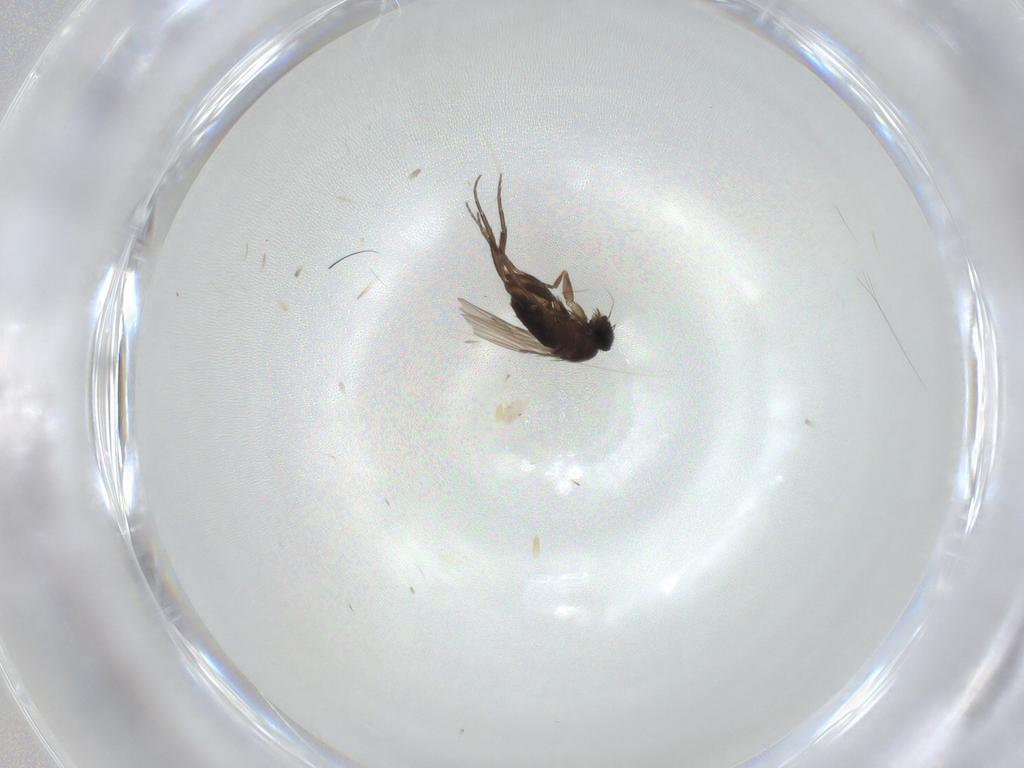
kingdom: Animalia
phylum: Arthropoda
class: Insecta
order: Diptera
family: Phoridae
